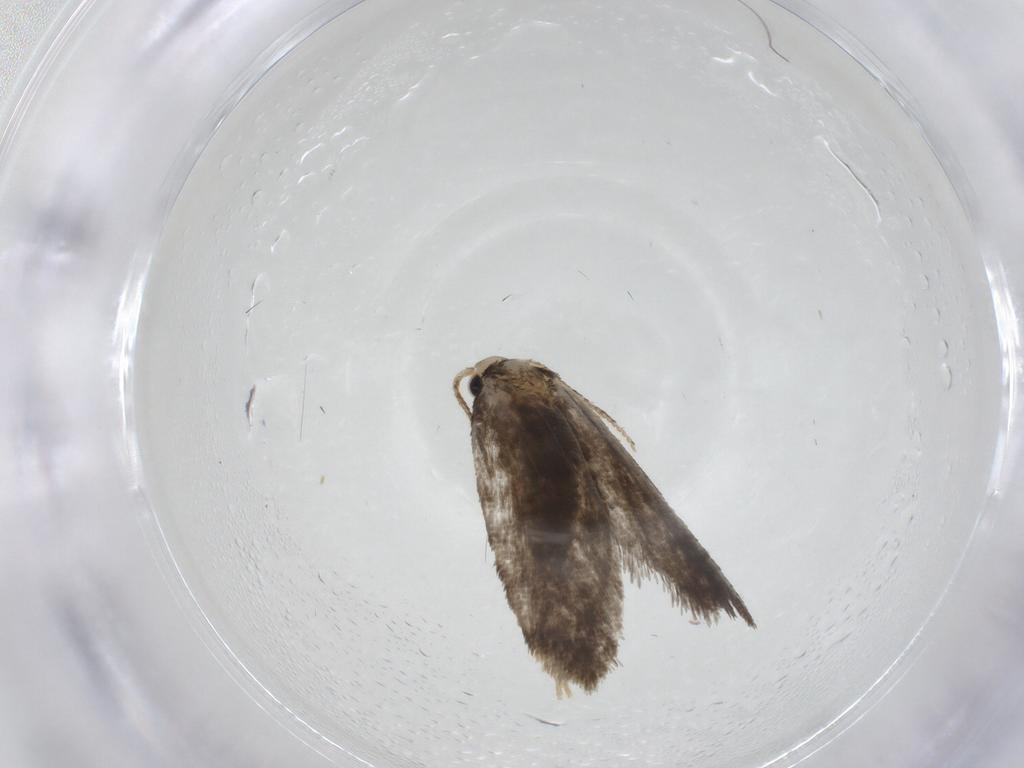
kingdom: Animalia
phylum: Arthropoda
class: Insecta
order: Lepidoptera
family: Psychidae
